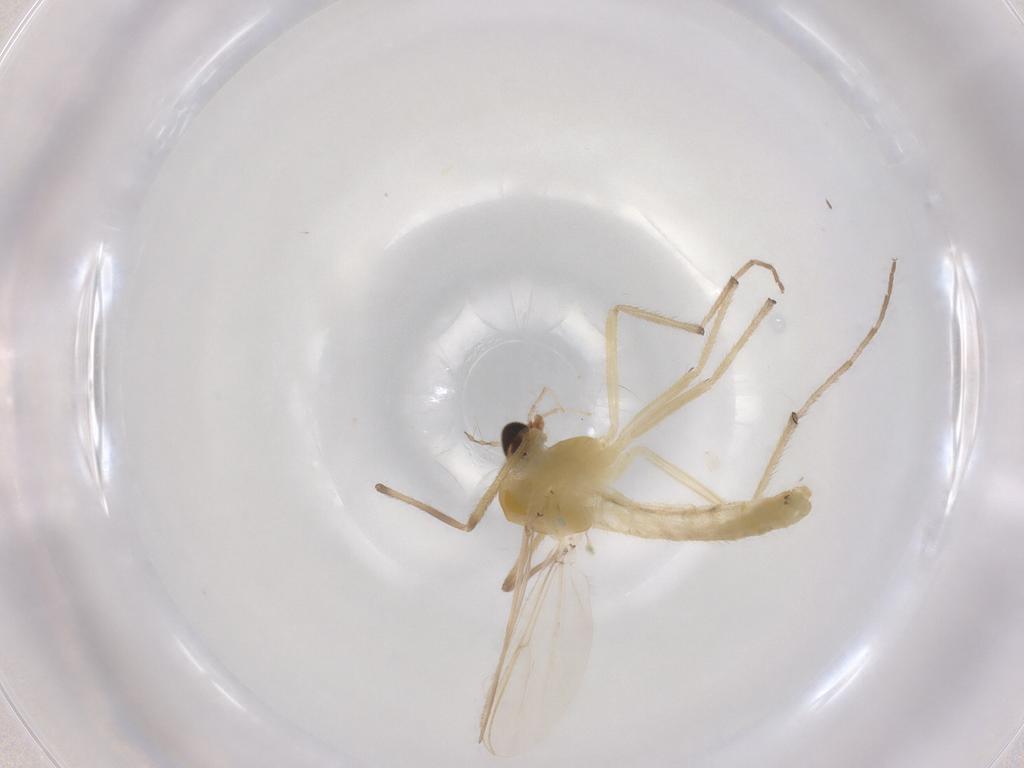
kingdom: Animalia
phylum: Arthropoda
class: Insecta
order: Diptera
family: Chironomidae
